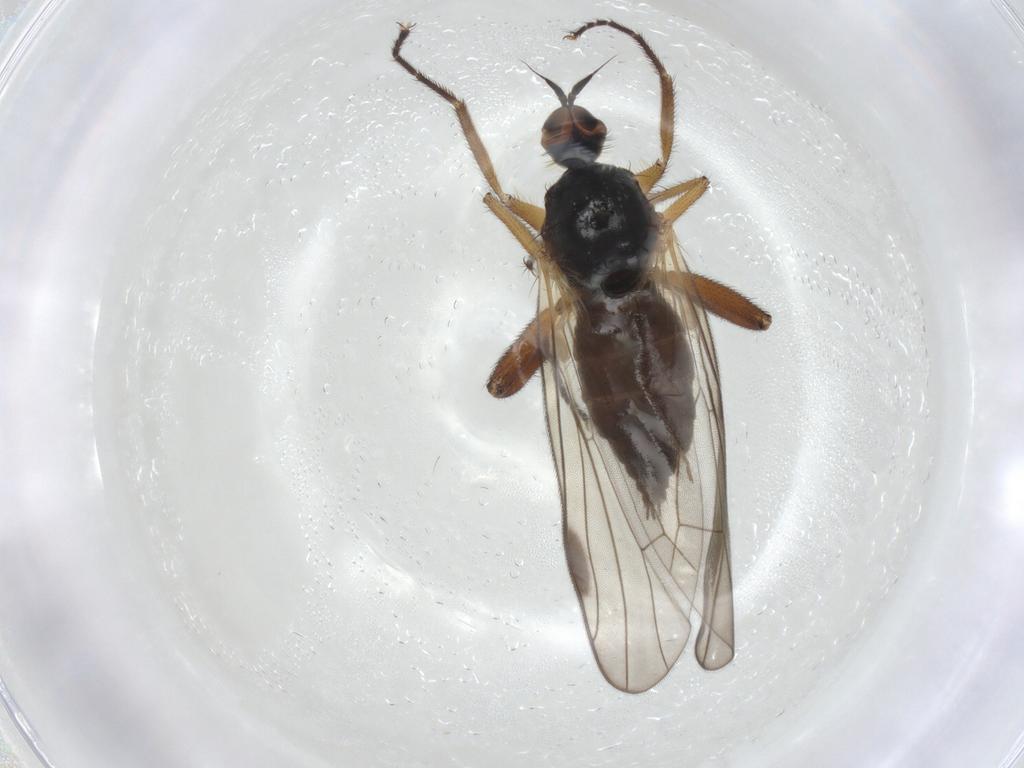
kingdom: Animalia
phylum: Arthropoda
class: Insecta
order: Diptera
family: Hybotidae
